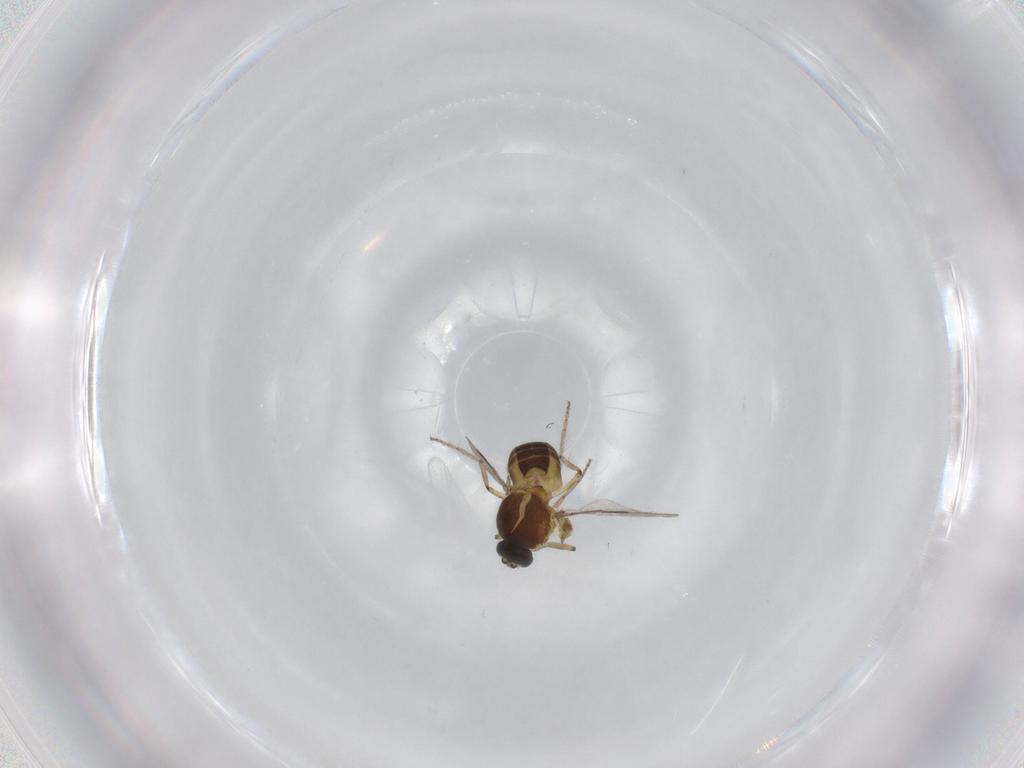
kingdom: Animalia
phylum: Arthropoda
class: Insecta
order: Diptera
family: Ceratopogonidae
